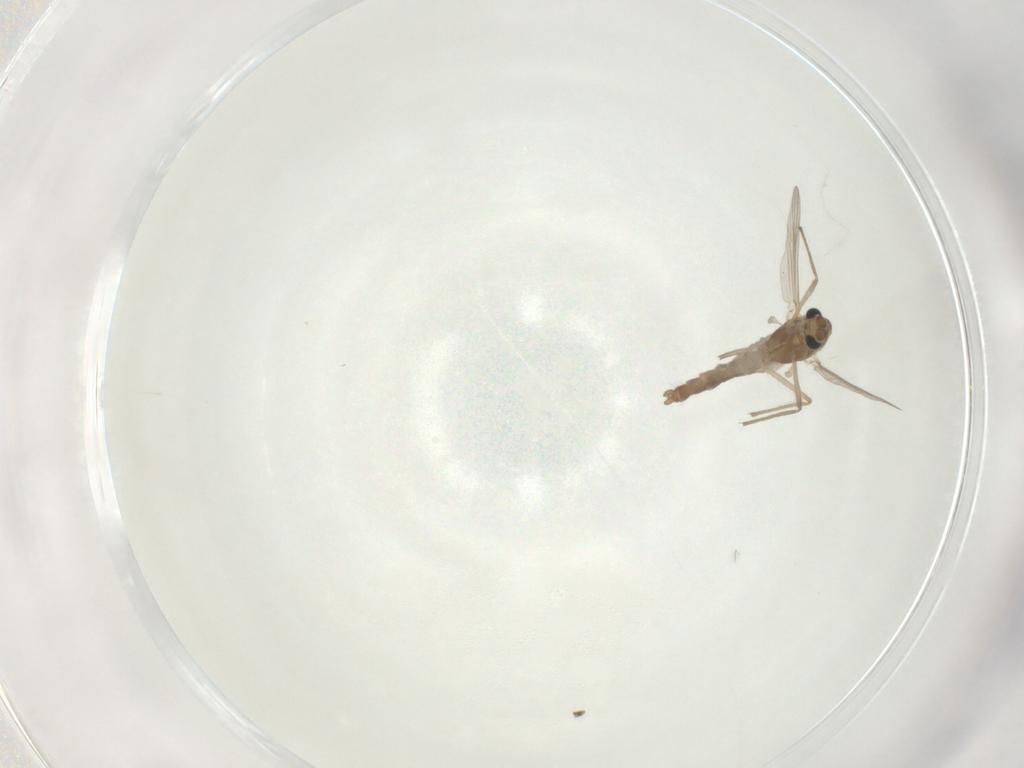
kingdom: Animalia
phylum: Arthropoda
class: Insecta
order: Diptera
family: Chironomidae
